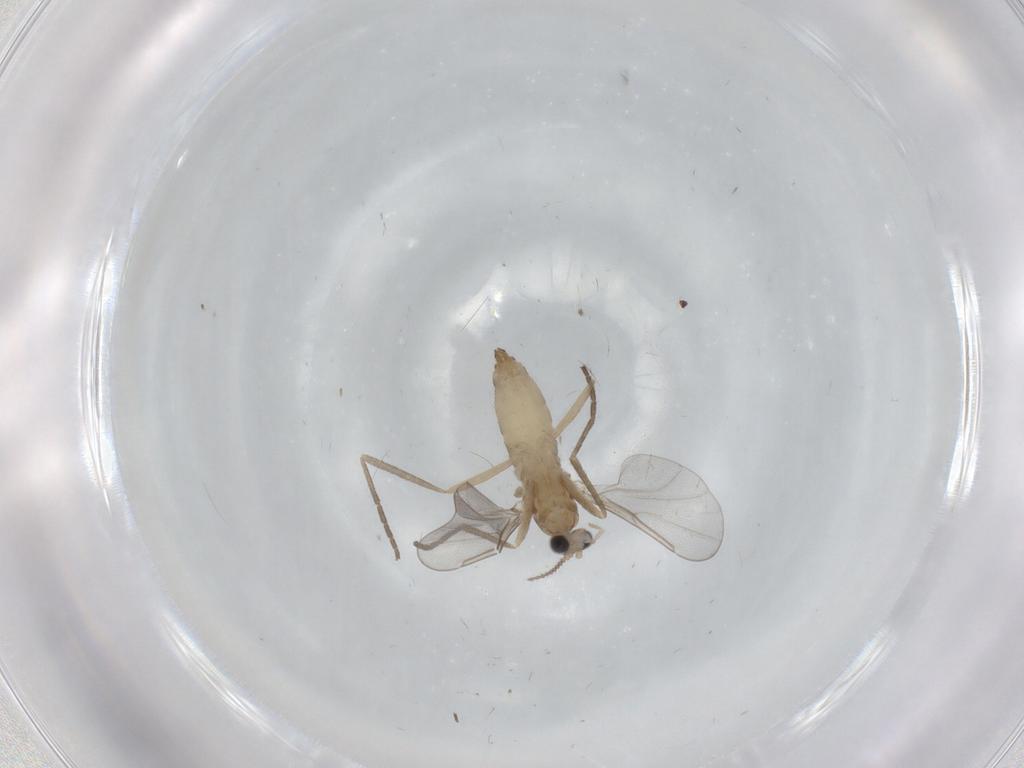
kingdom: Animalia
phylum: Arthropoda
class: Insecta
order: Diptera
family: Cecidomyiidae
